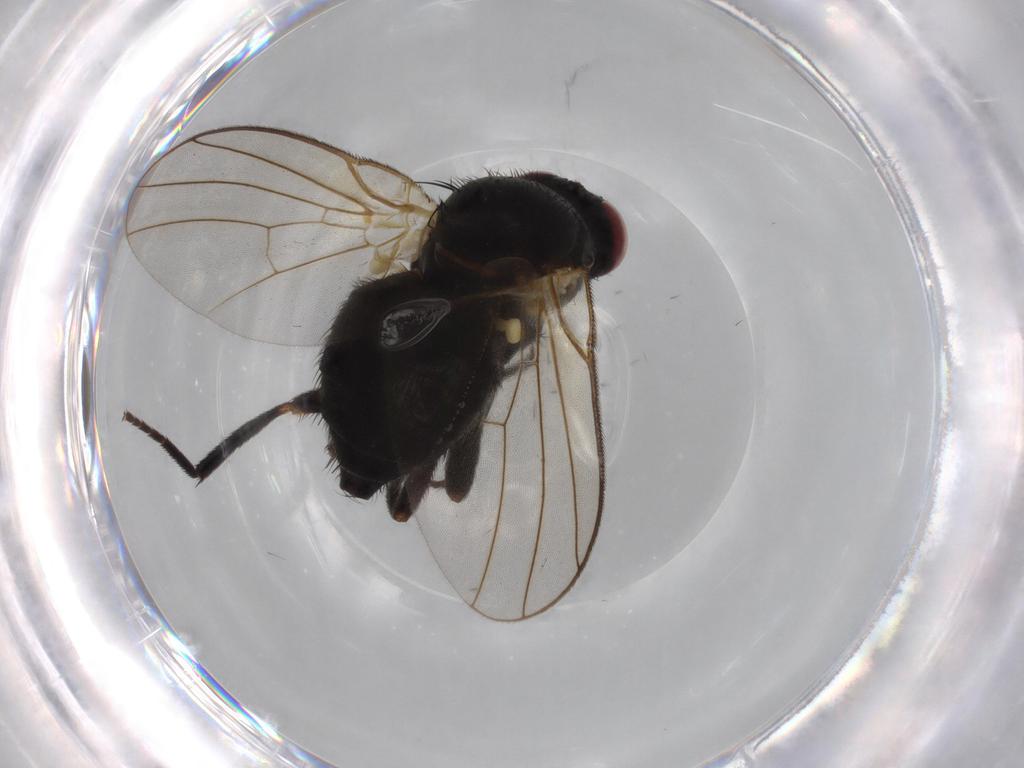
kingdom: Animalia
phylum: Arthropoda
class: Insecta
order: Diptera
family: Agromyzidae
